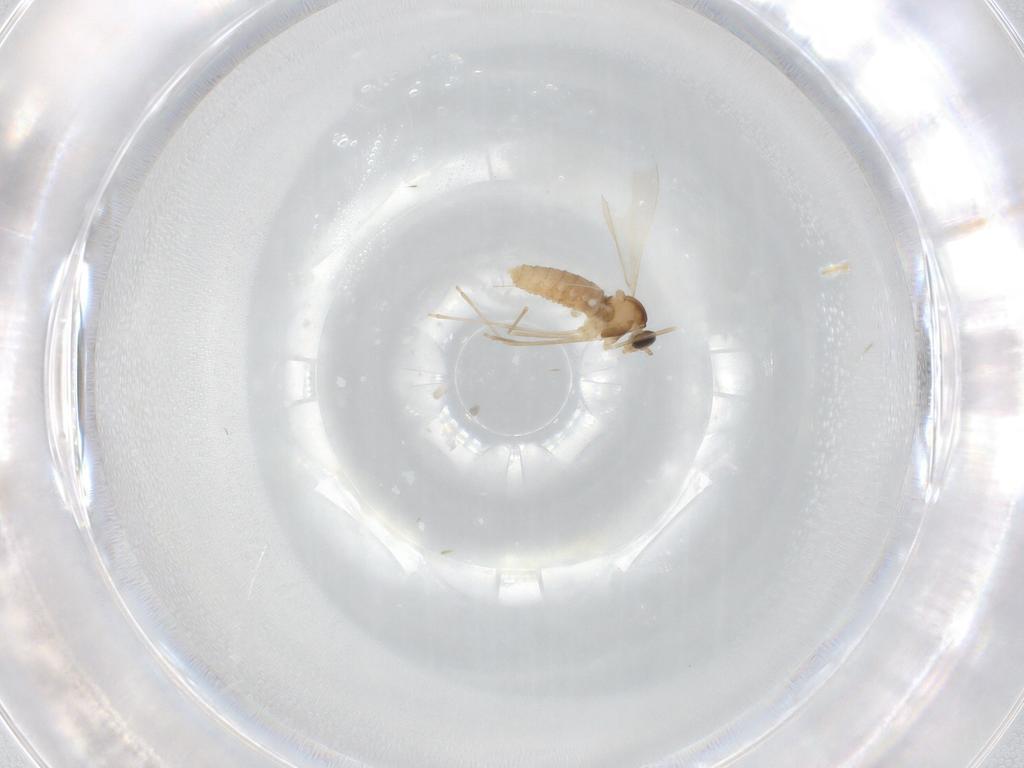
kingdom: Animalia
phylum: Arthropoda
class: Insecta
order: Diptera
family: Cecidomyiidae
